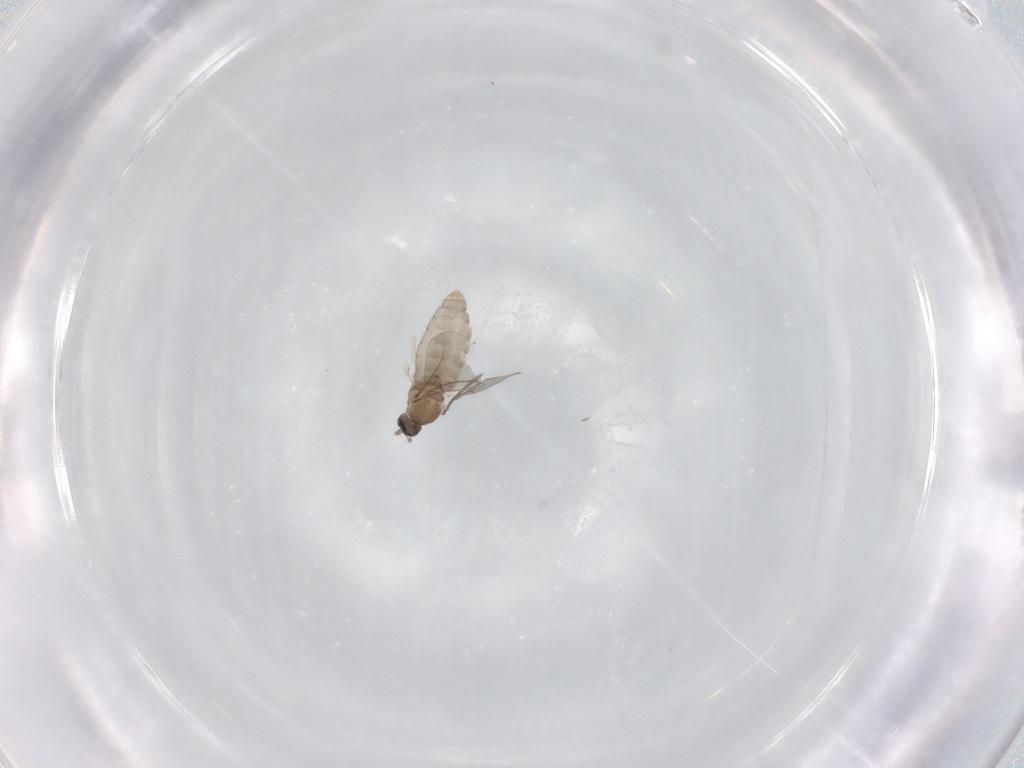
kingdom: Animalia
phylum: Arthropoda
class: Insecta
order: Diptera
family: Cecidomyiidae
